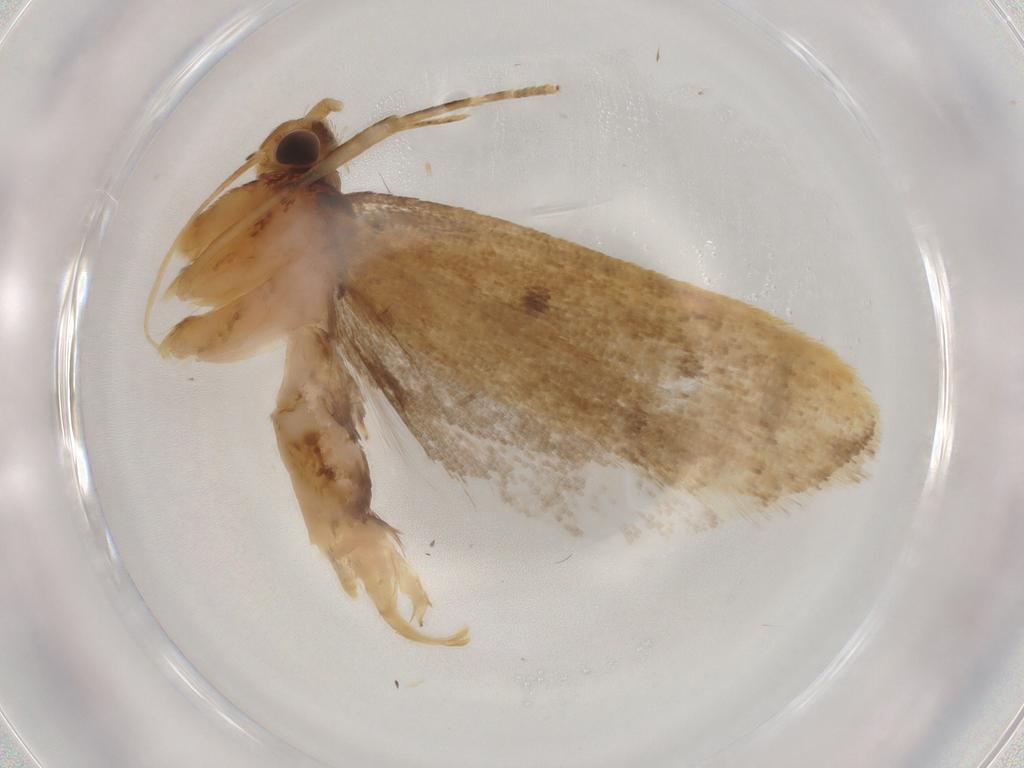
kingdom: Animalia
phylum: Arthropoda
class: Insecta
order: Lepidoptera
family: Lecithoceridae
